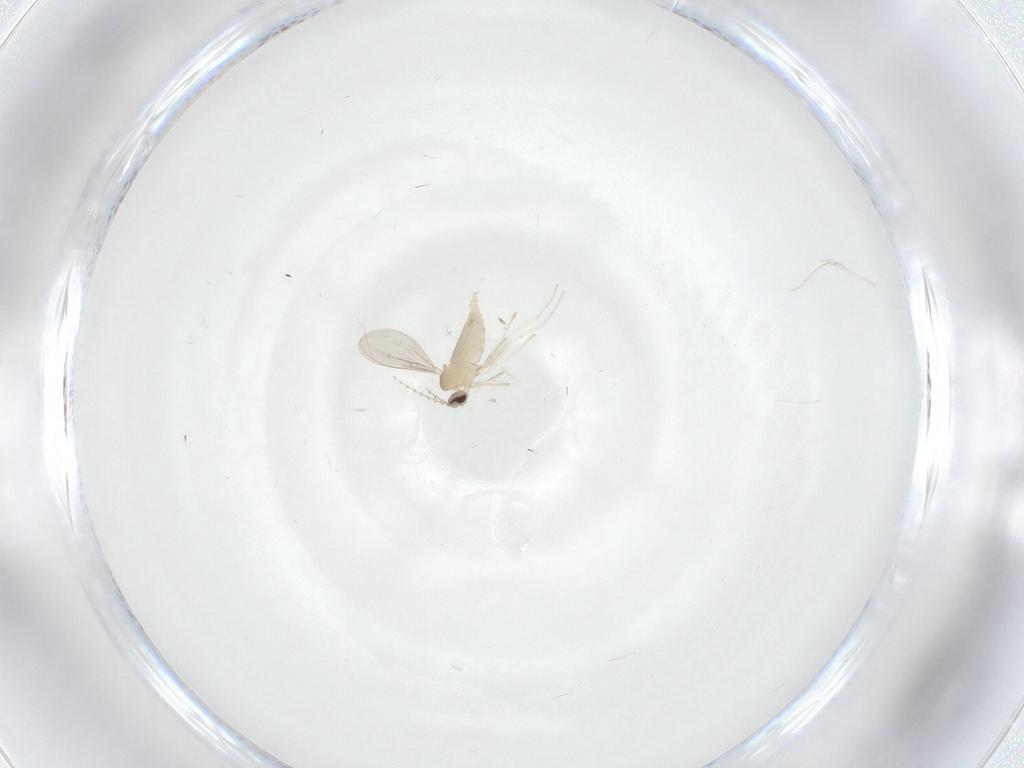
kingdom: Animalia
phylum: Arthropoda
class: Insecta
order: Diptera
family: Cecidomyiidae
